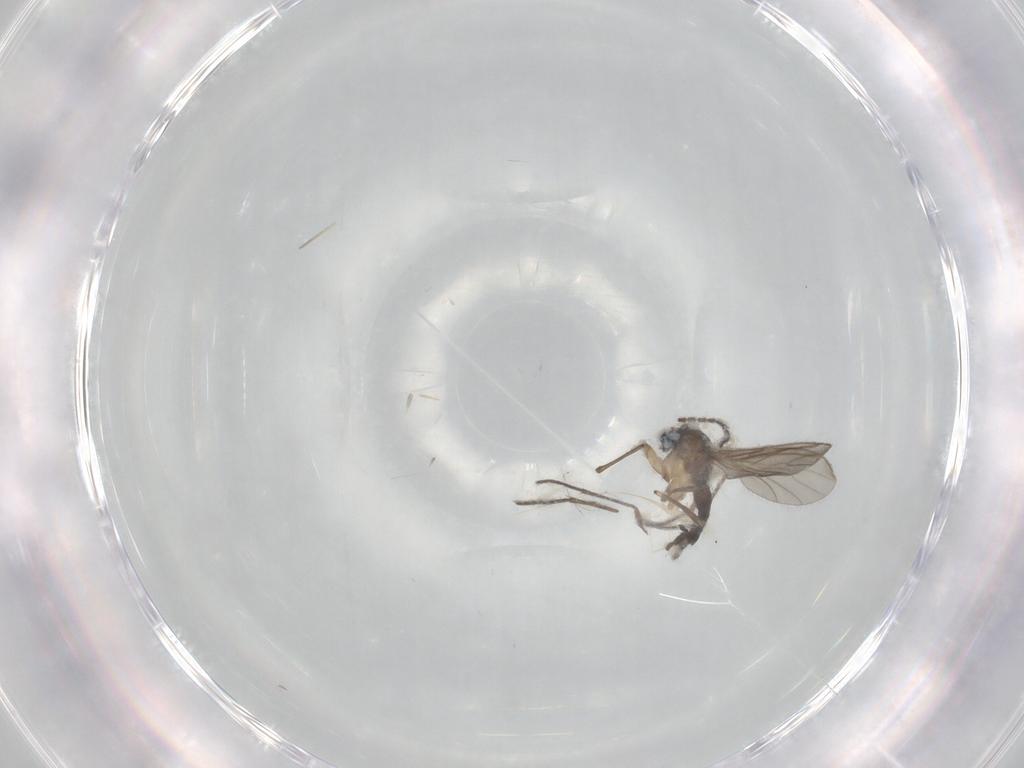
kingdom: Animalia
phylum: Arthropoda
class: Insecta
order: Diptera
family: Sciaridae
